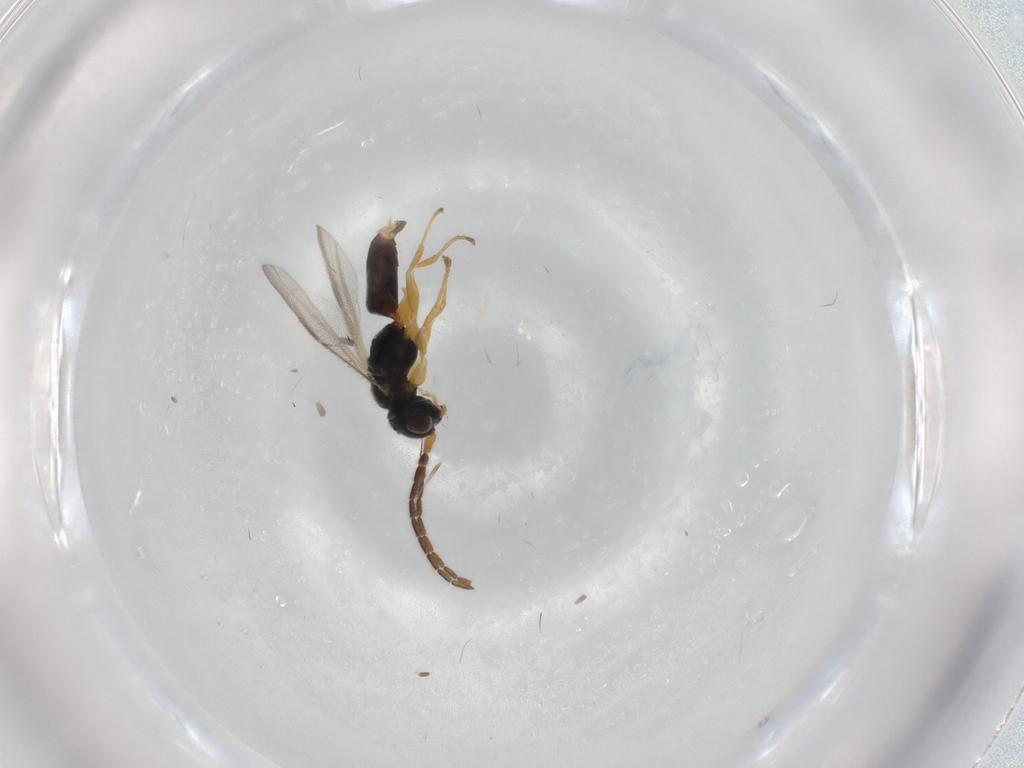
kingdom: Animalia
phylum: Arthropoda
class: Insecta
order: Hymenoptera
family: Dryinidae
